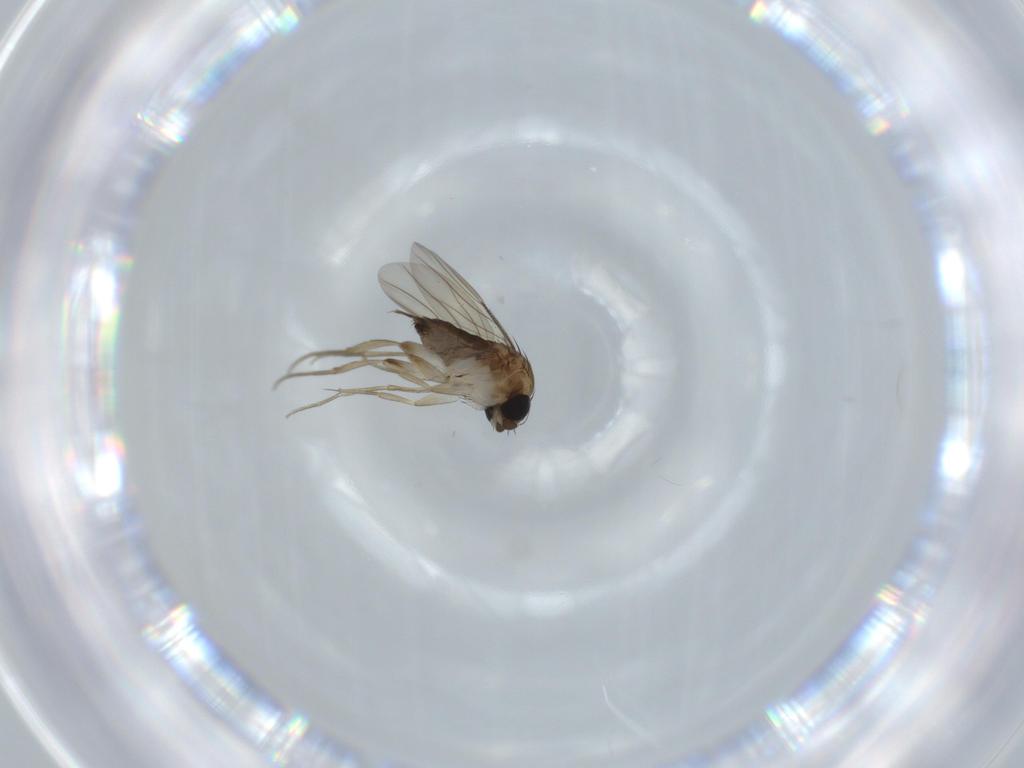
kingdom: Animalia
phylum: Arthropoda
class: Insecta
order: Diptera
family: Phoridae
